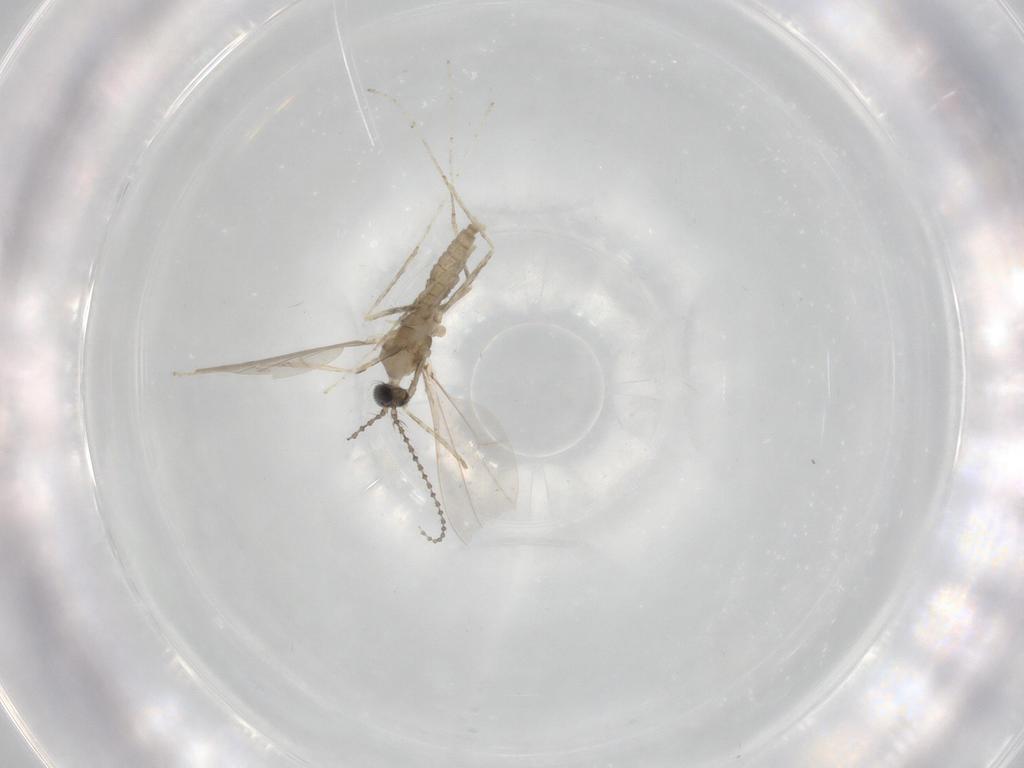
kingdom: Animalia
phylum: Arthropoda
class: Insecta
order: Diptera
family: Cecidomyiidae
